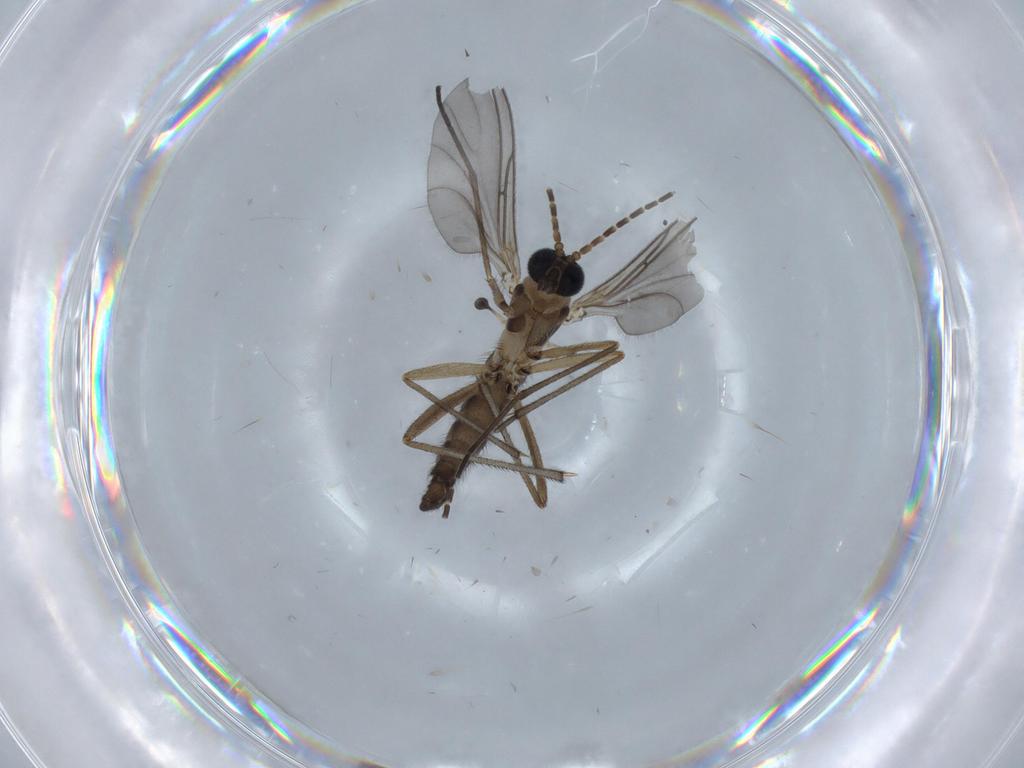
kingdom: Animalia
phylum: Arthropoda
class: Insecta
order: Diptera
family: Sciaridae
